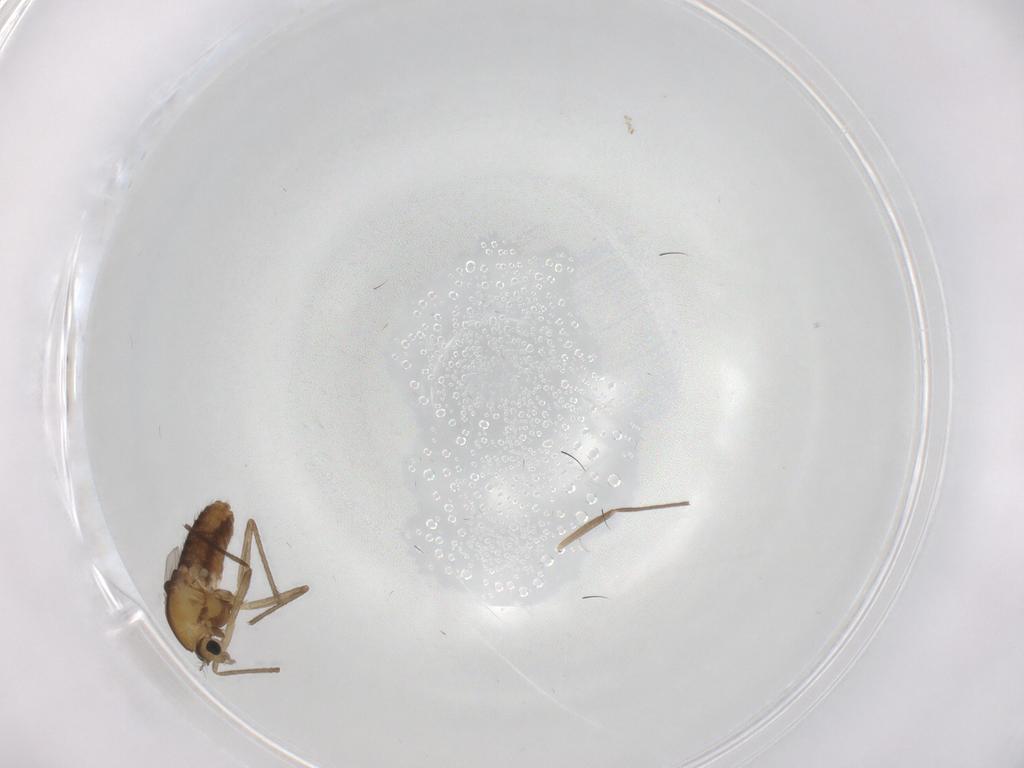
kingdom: Animalia
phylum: Arthropoda
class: Insecta
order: Diptera
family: Chironomidae
